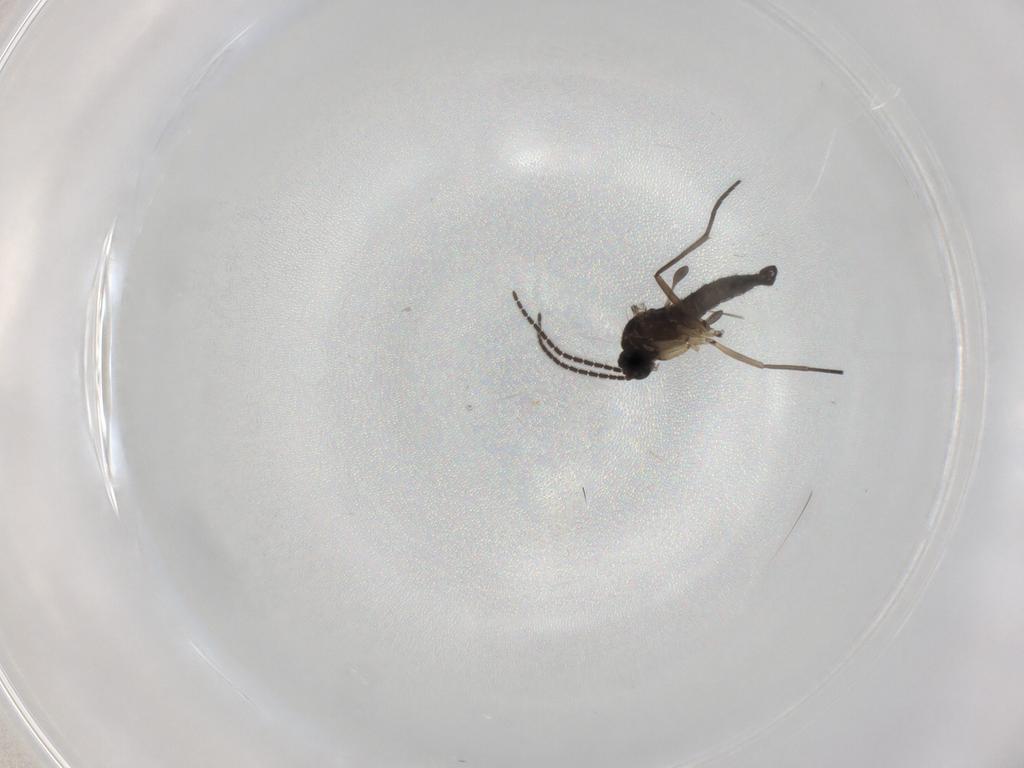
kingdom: Animalia
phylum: Arthropoda
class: Insecta
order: Diptera
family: Sciaridae
